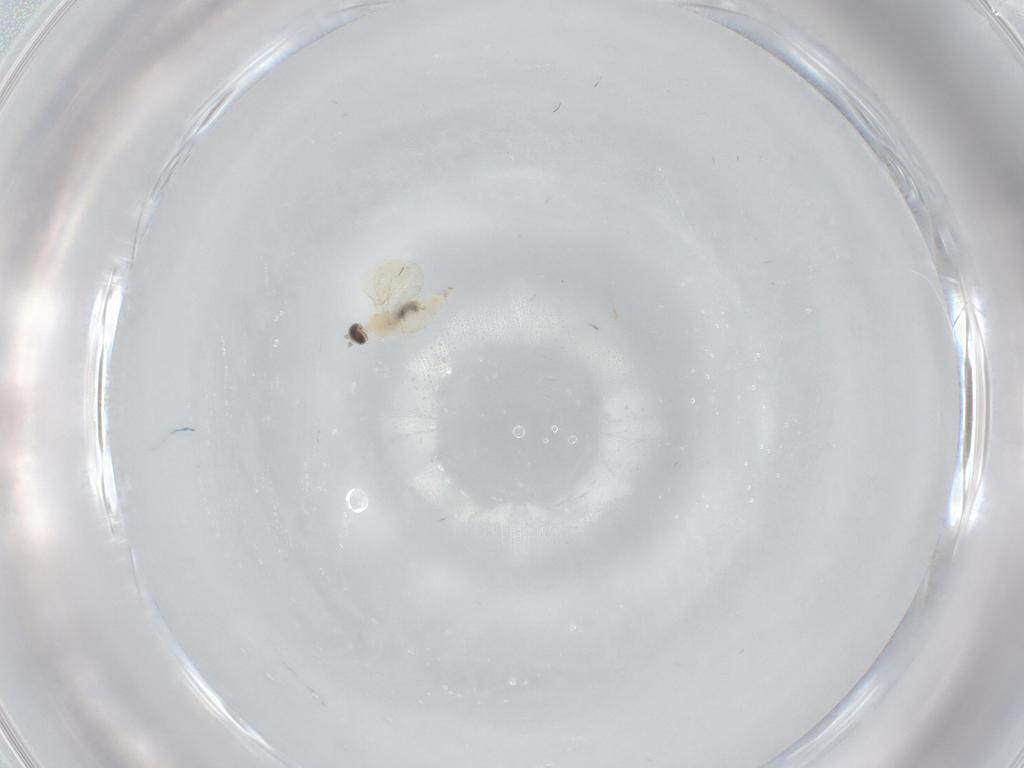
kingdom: Animalia
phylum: Arthropoda
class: Insecta
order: Diptera
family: Cecidomyiidae
